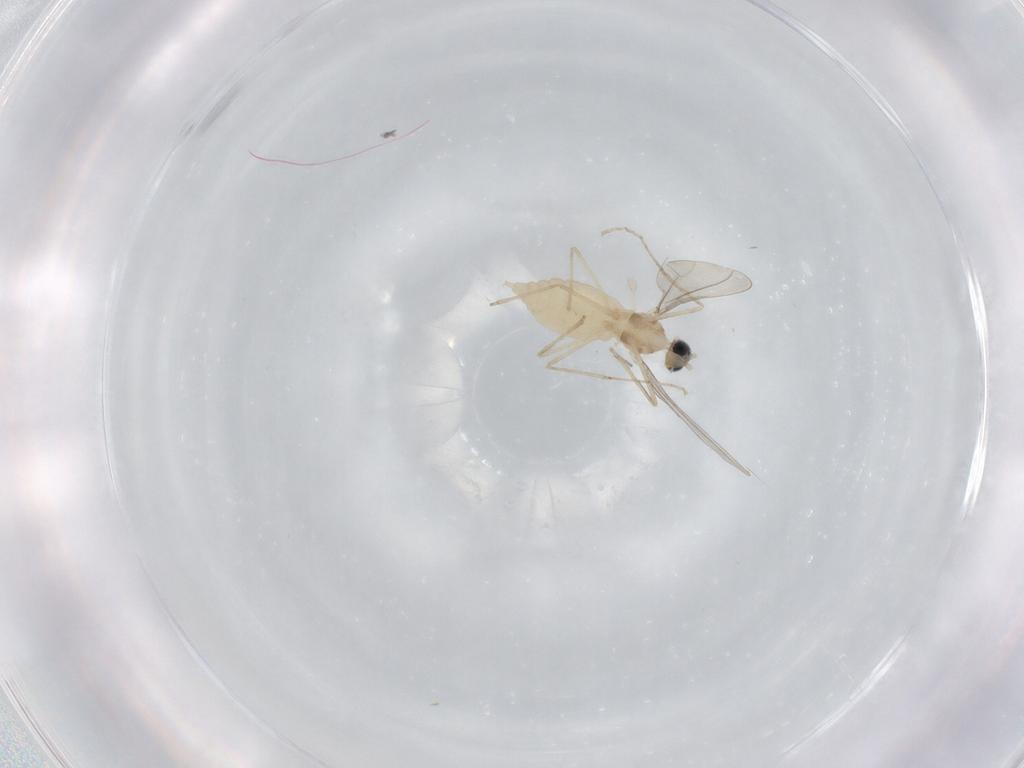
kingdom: Animalia
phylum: Arthropoda
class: Insecta
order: Diptera
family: Cecidomyiidae
